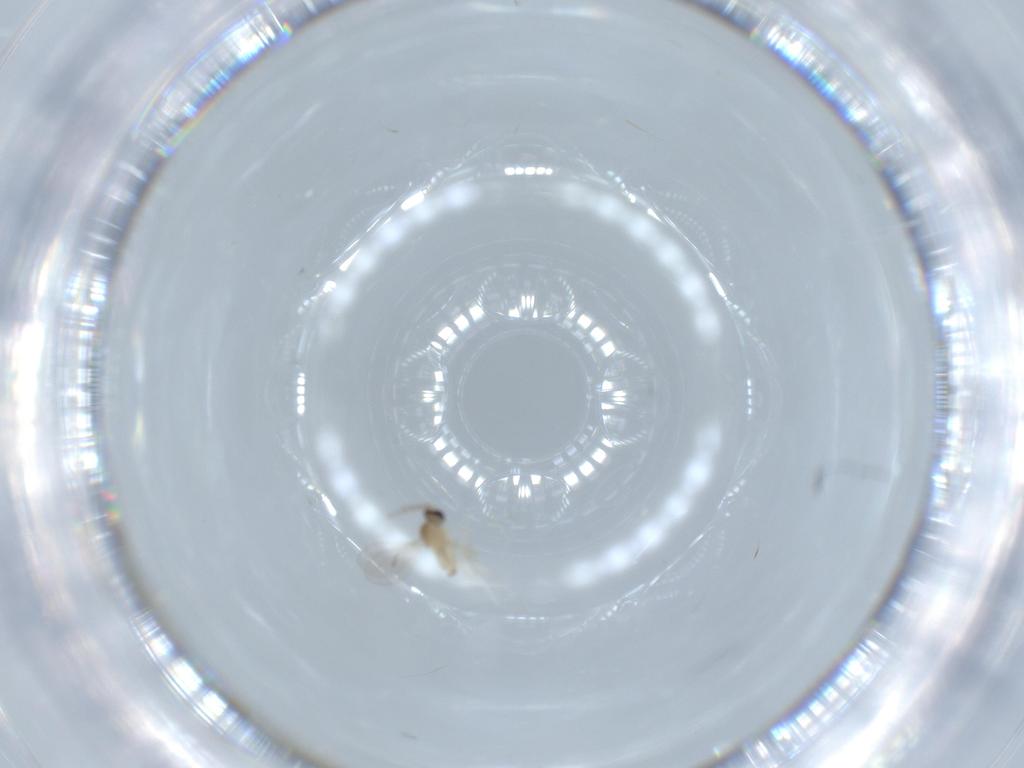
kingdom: Animalia
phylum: Arthropoda
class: Insecta
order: Diptera
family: Cecidomyiidae
